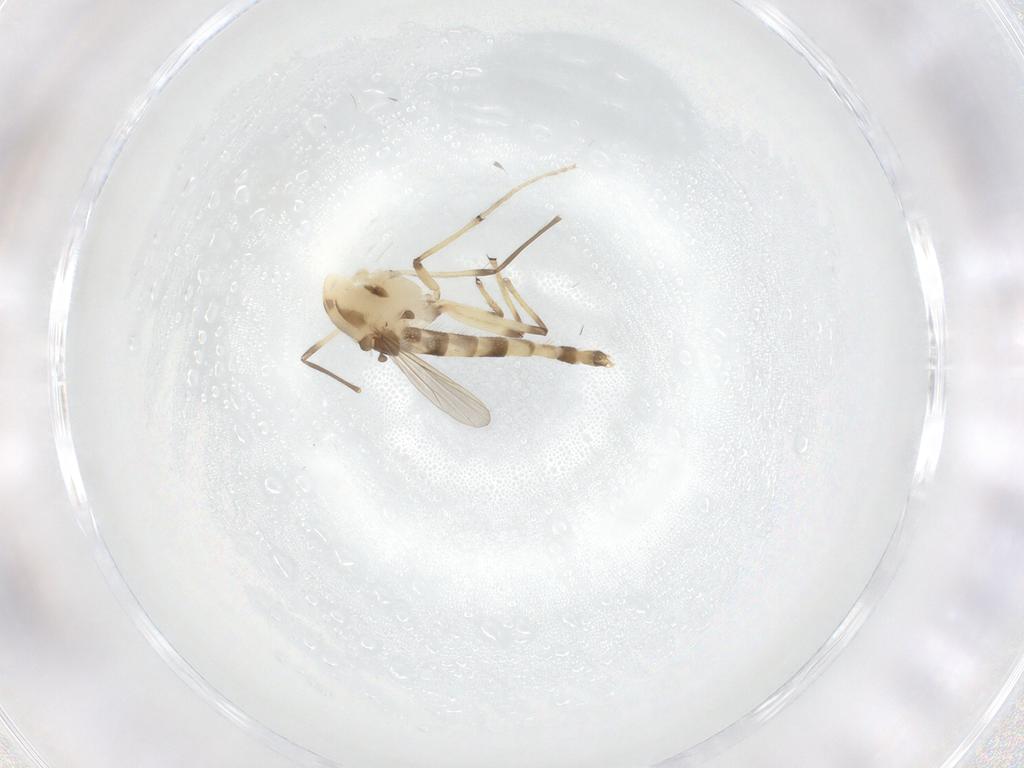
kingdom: Animalia
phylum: Arthropoda
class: Insecta
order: Diptera
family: Chironomidae
